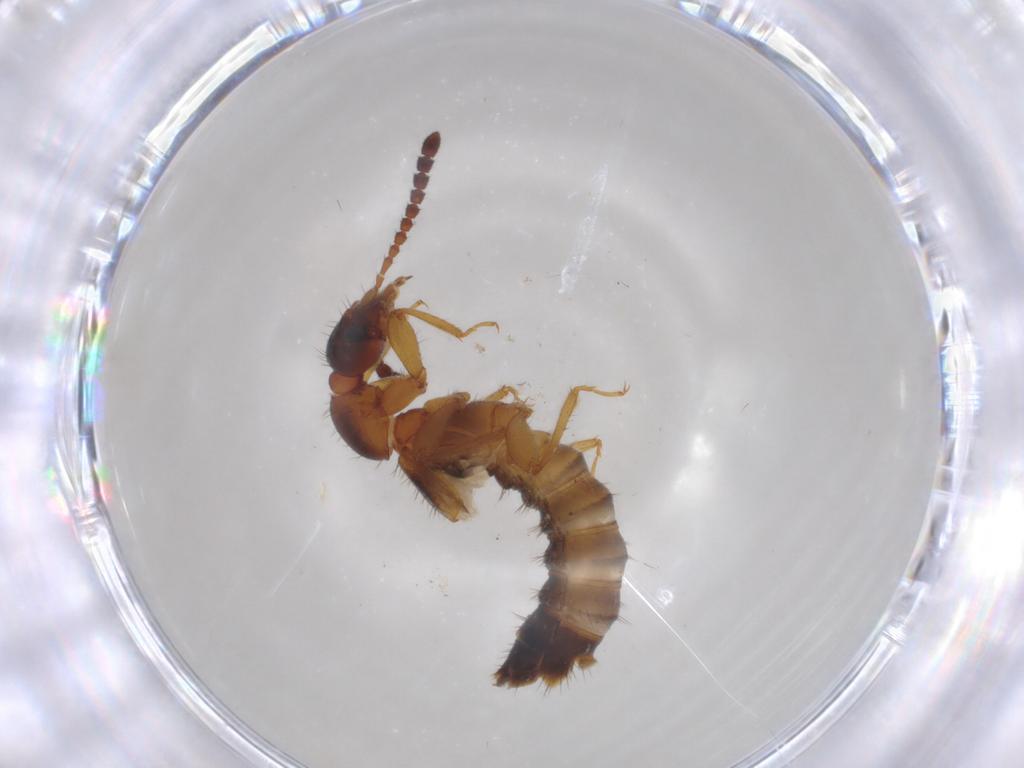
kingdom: Animalia
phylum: Arthropoda
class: Insecta
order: Coleoptera
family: Staphylinidae
